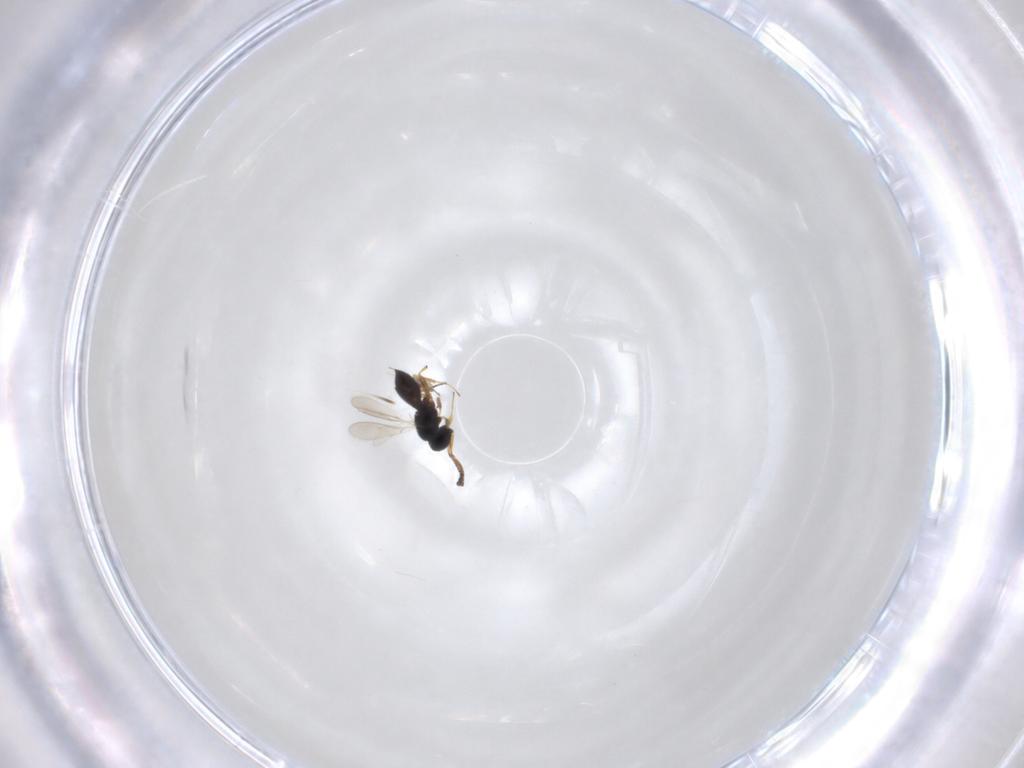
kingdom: Animalia
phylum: Arthropoda
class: Insecta
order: Hymenoptera
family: Scelionidae
